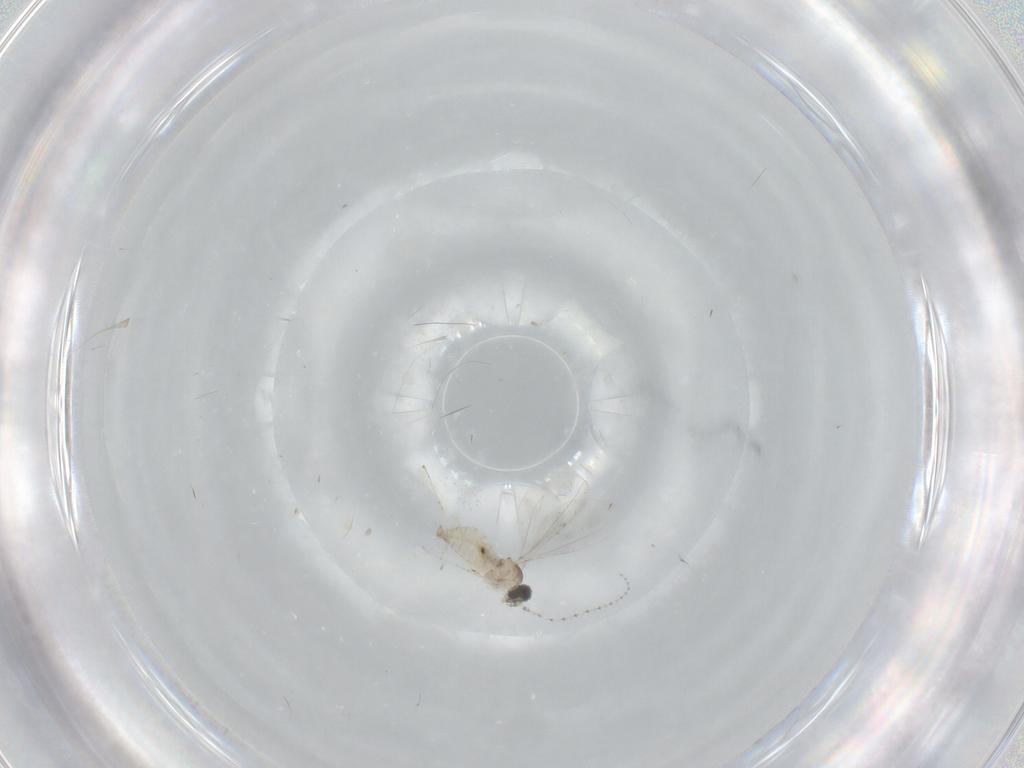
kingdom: Animalia
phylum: Arthropoda
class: Insecta
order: Diptera
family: Cecidomyiidae
